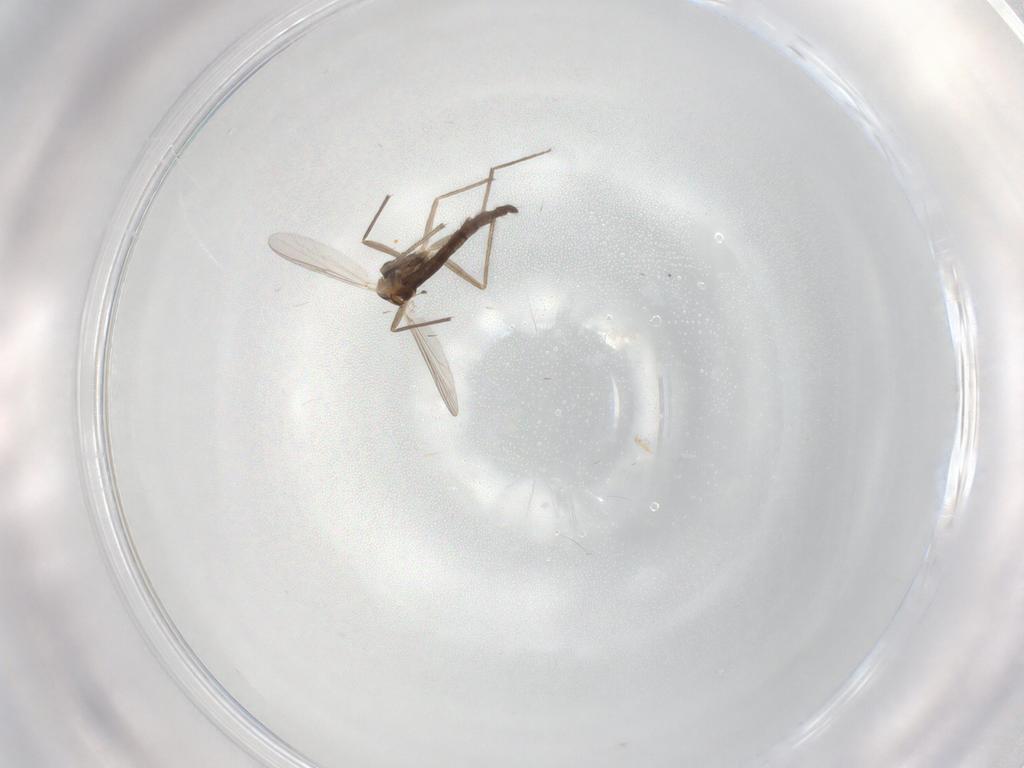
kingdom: Animalia
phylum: Arthropoda
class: Insecta
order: Diptera
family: Chironomidae
